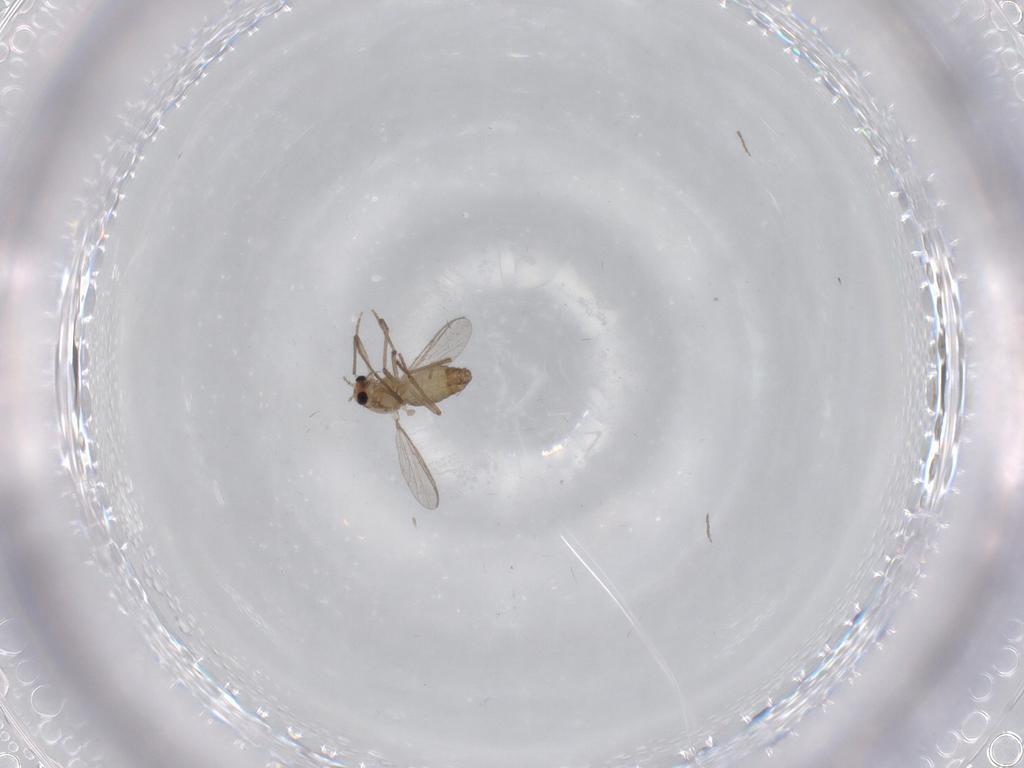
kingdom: Animalia
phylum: Arthropoda
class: Insecta
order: Diptera
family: Chironomidae
